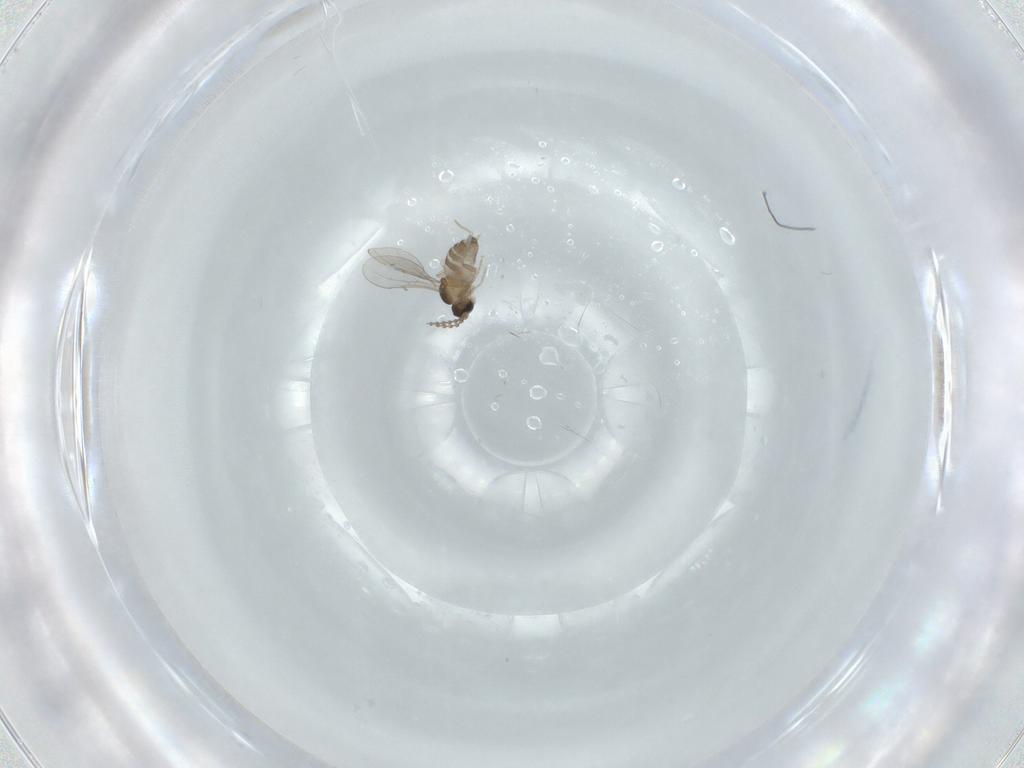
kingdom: Animalia
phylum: Arthropoda
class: Insecta
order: Diptera
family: Cecidomyiidae
